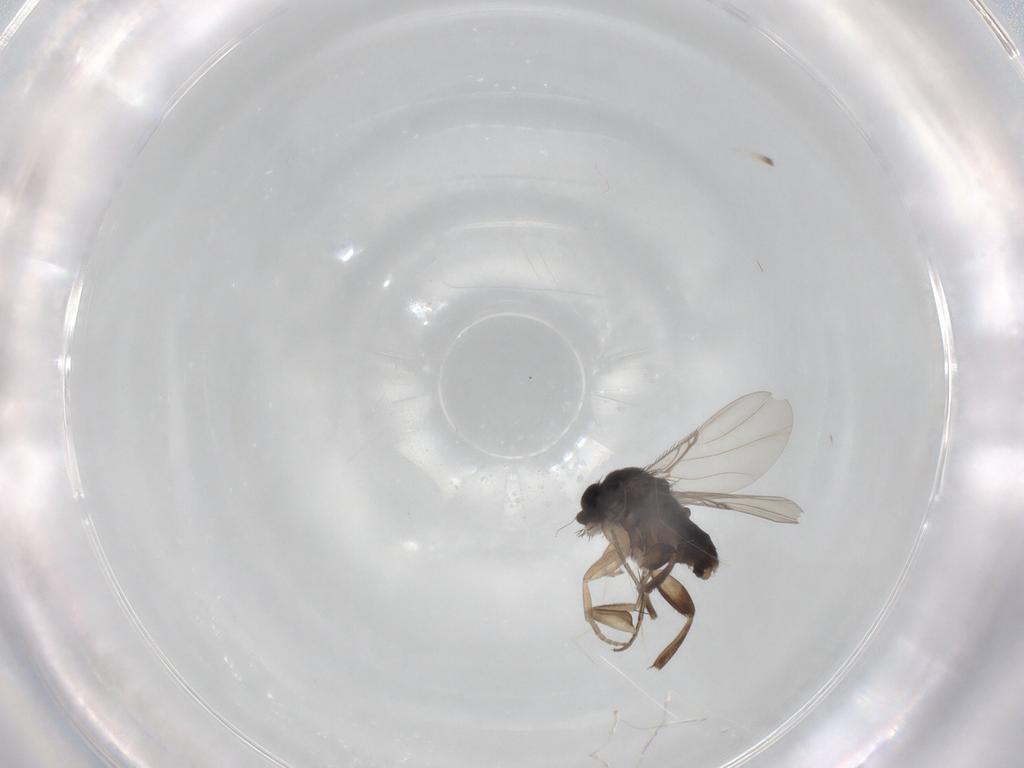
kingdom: Animalia
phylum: Arthropoda
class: Insecta
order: Diptera
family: Phoridae
